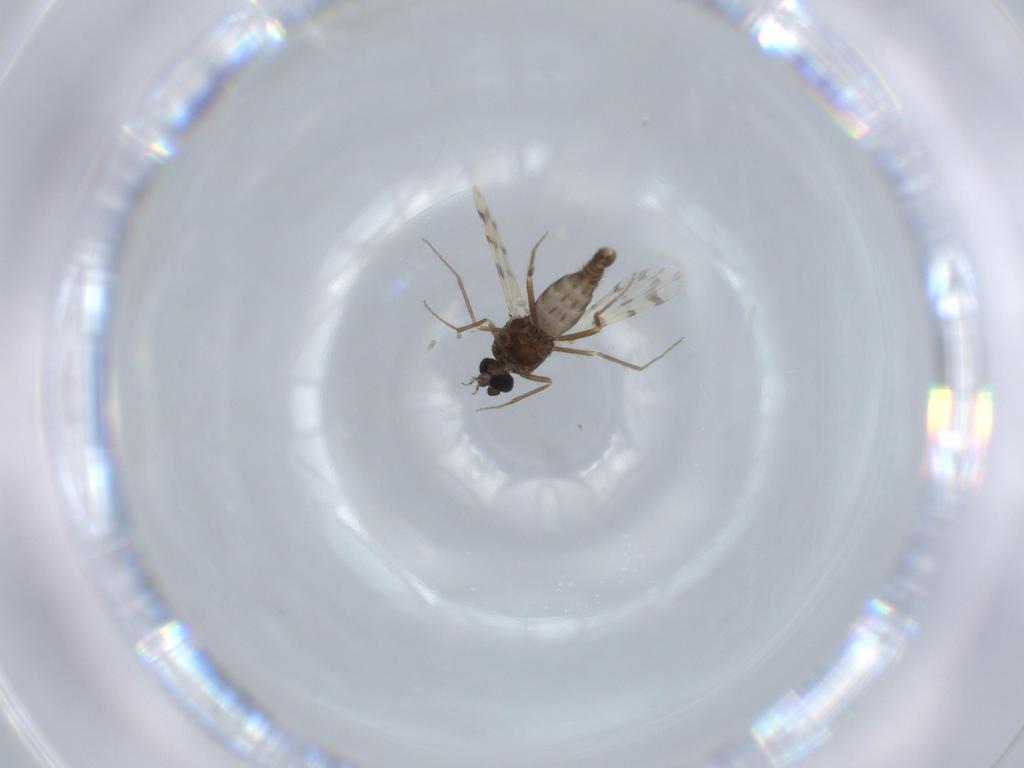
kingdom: Animalia
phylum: Arthropoda
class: Insecta
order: Diptera
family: Ceratopogonidae
